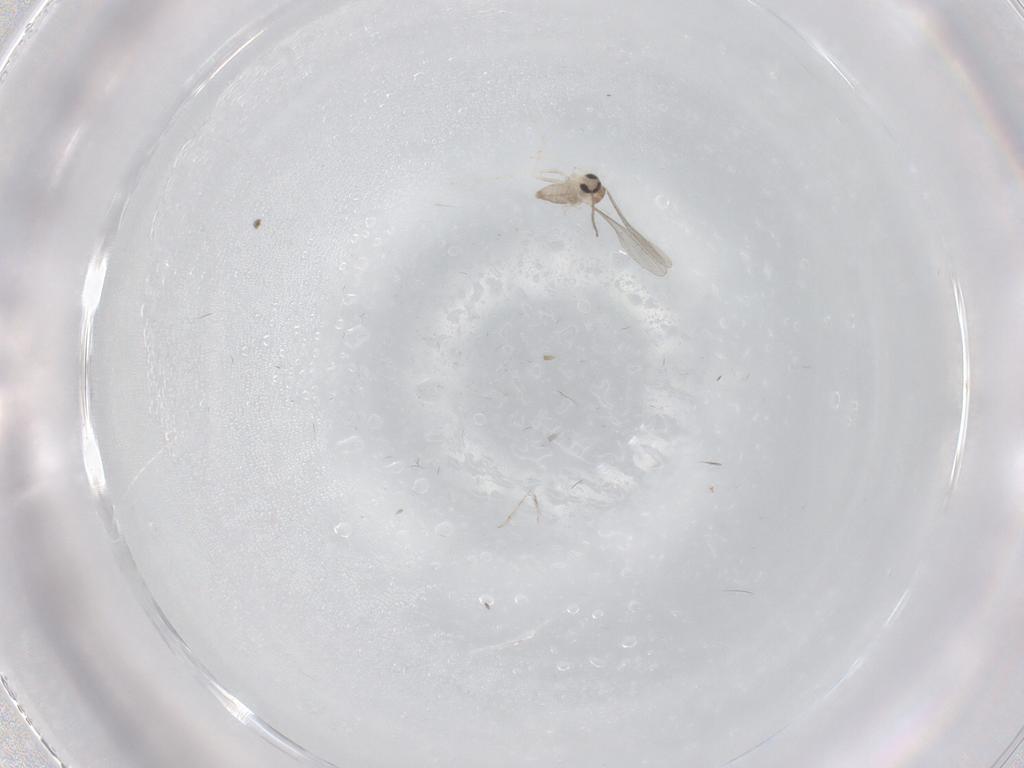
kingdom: Animalia
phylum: Arthropoda
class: Insecta
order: Diptera
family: Cecidomyiidae
